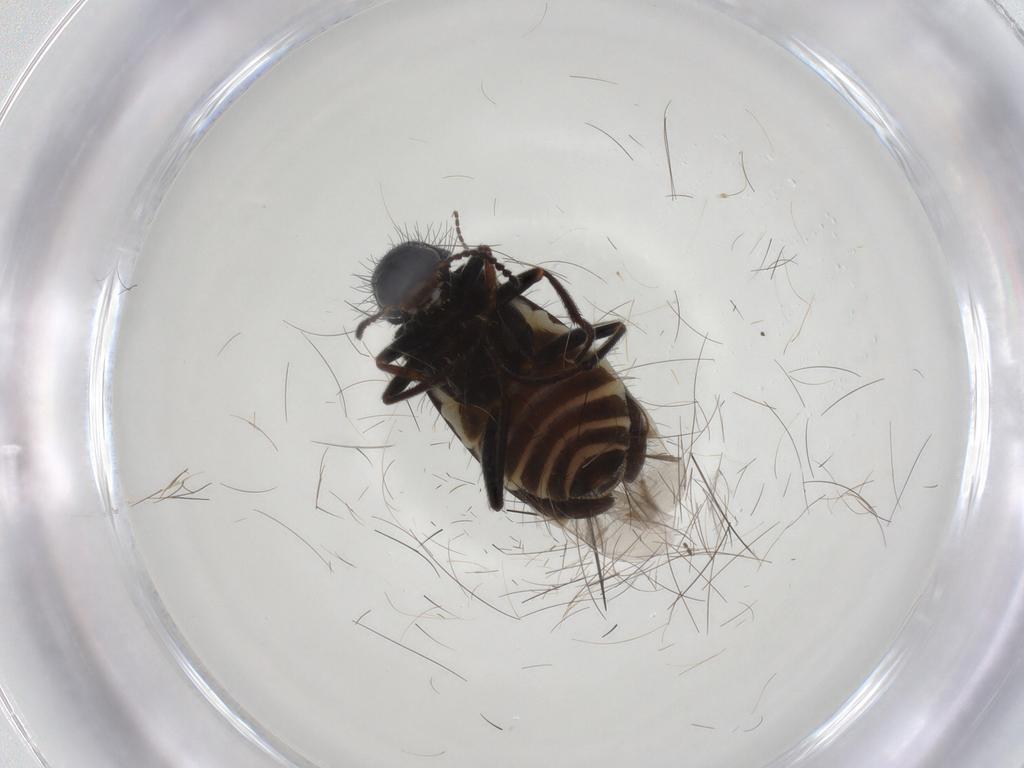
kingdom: Animalia
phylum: Arthropoda
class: Insecta
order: Coleoptera
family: Melyridae
